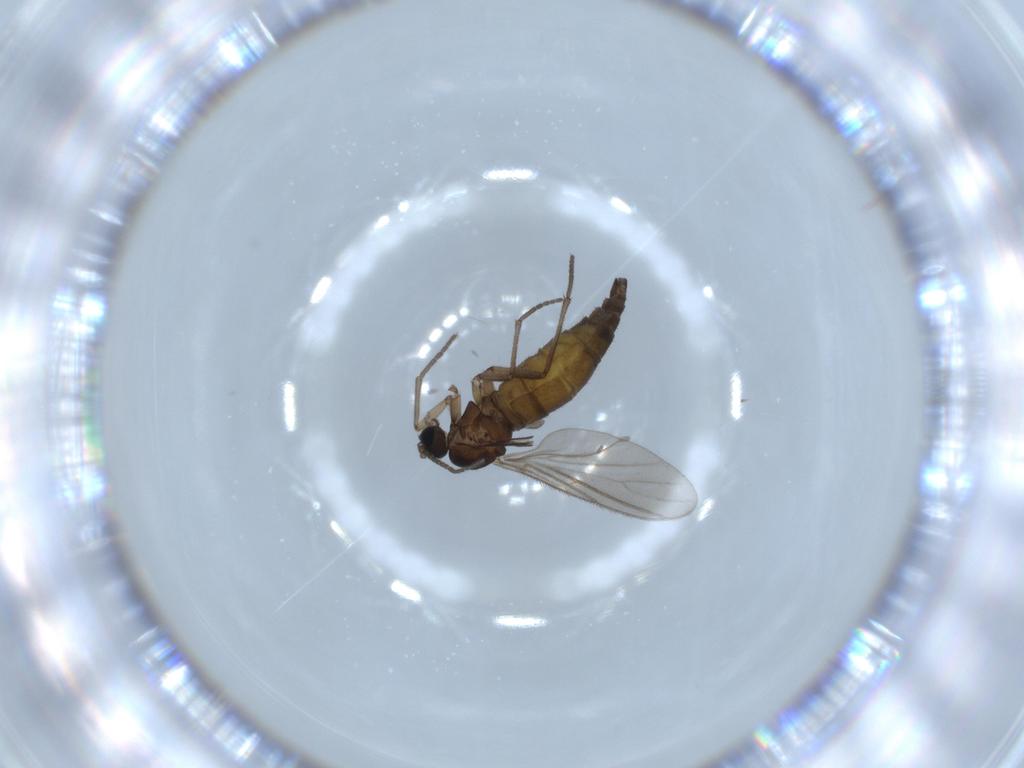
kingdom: Animalia
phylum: Arthropoda
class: Insecta
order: Diptera
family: Sciaridae
